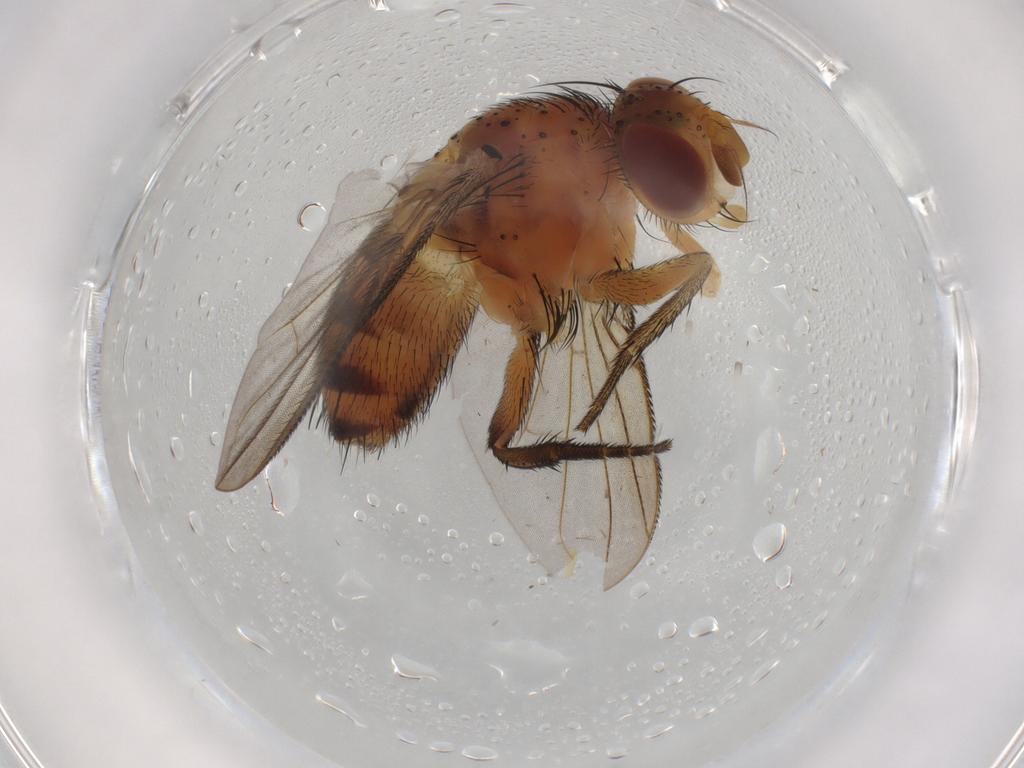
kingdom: Animalia
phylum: Arthropoda
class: Insecta
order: Diptera
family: Tachinidae
